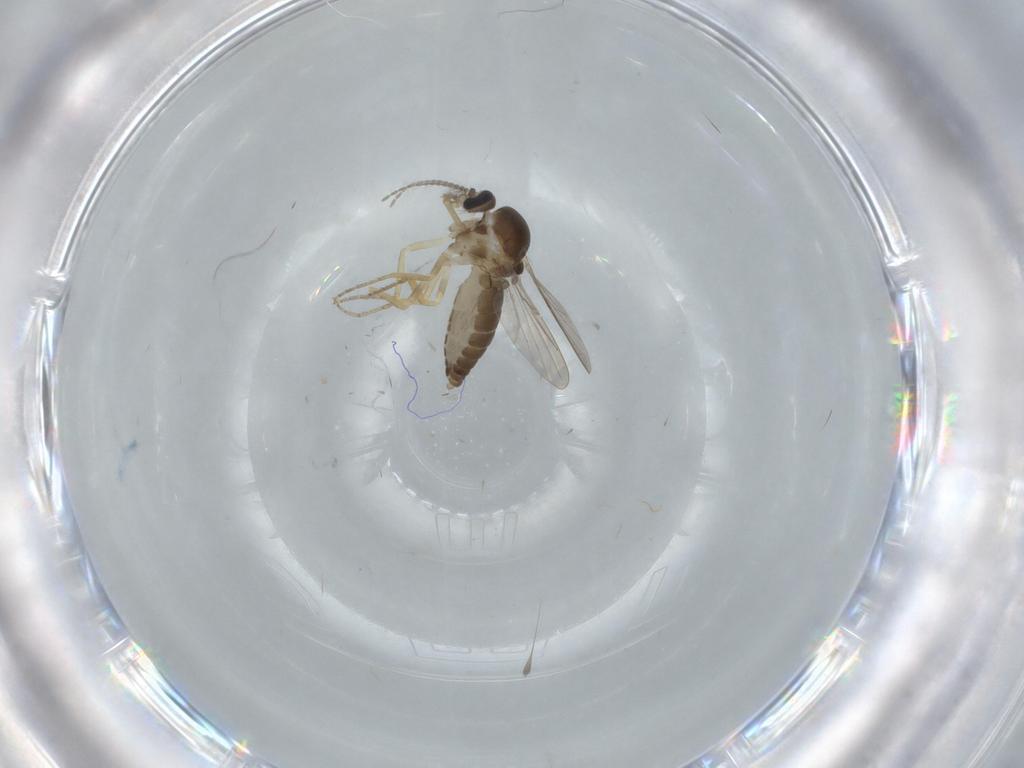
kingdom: Animalia
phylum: Arthropoda
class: Insecta
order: Diptera
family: Ceratopogonidae
